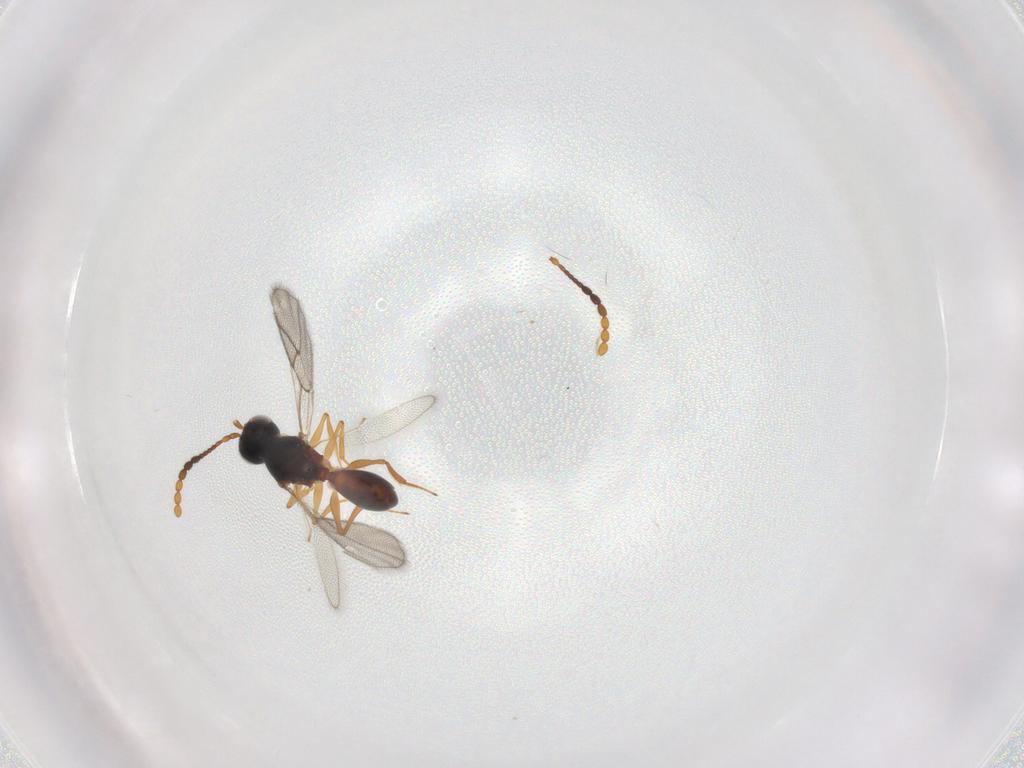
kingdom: Animalia
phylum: Arthropoda
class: Insecta
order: Hymenoptera
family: Figitidae
